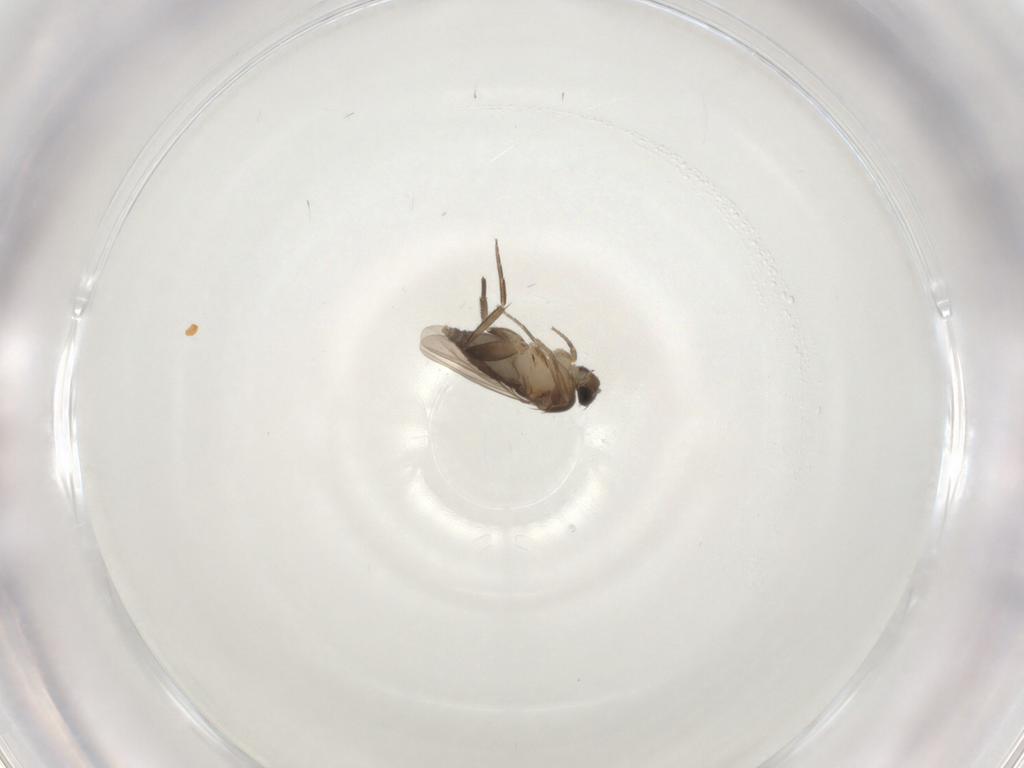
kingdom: Animalia
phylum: Arthropoda
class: Insecta
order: Diptera
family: Phoridae
